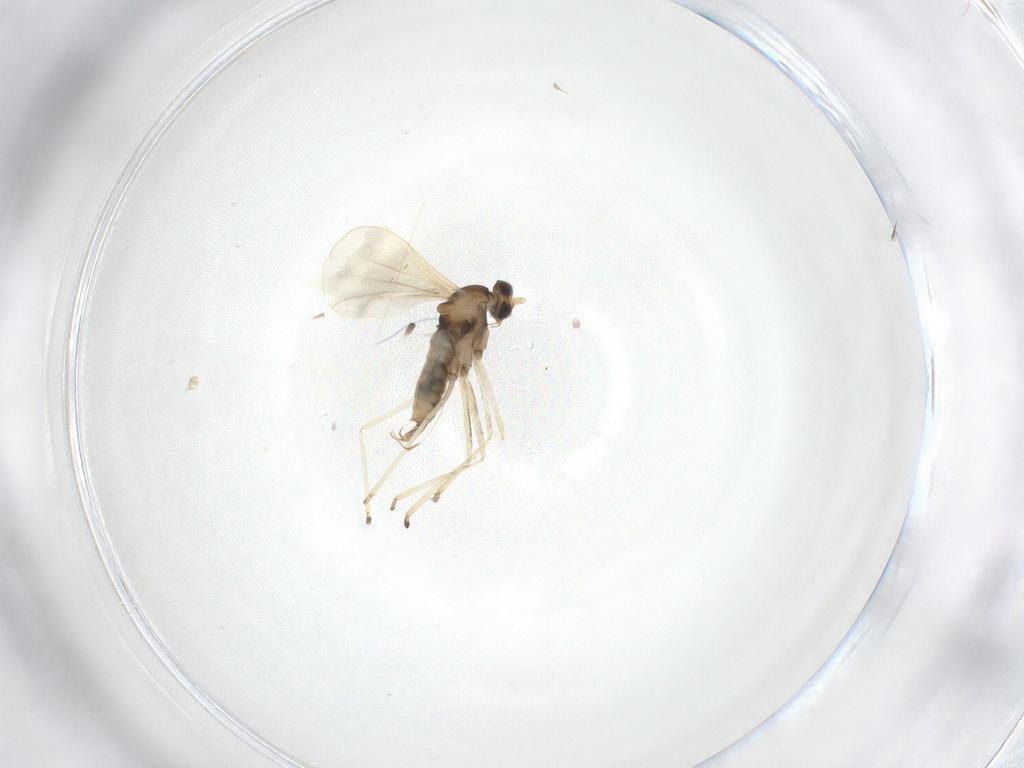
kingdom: Animalia
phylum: Arthropoda
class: Insecta
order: Diptera
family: Cecidomyiidae
